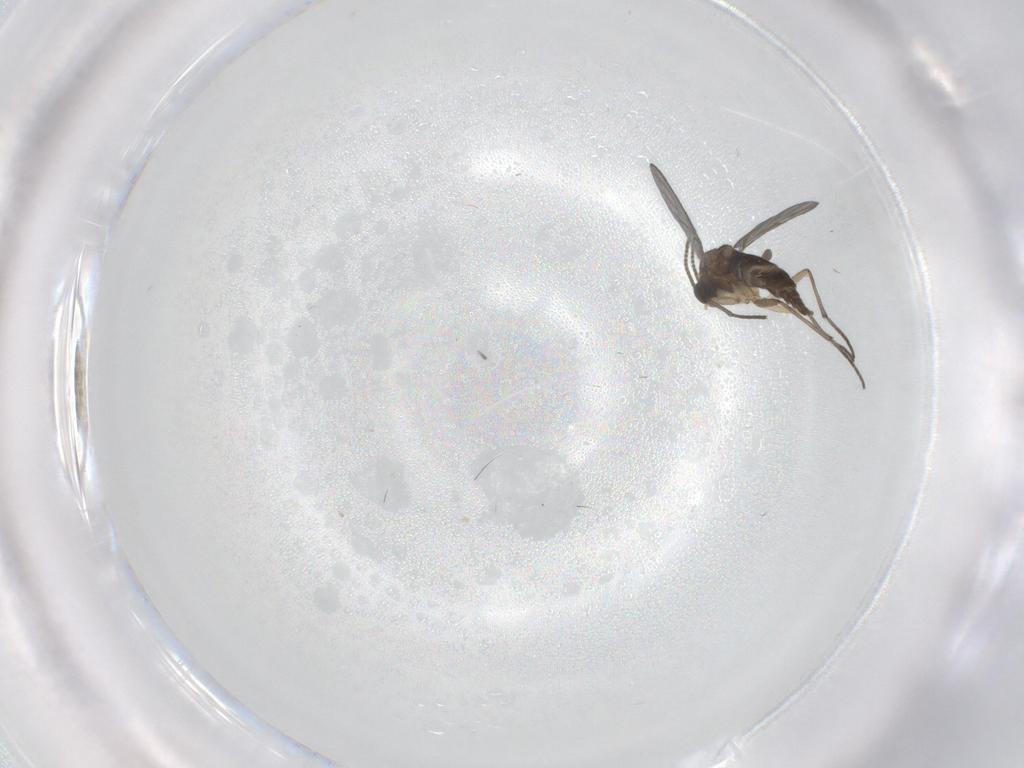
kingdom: Animalia
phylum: Arthropoda
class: Insecta
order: Diptera
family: Sciaridae
